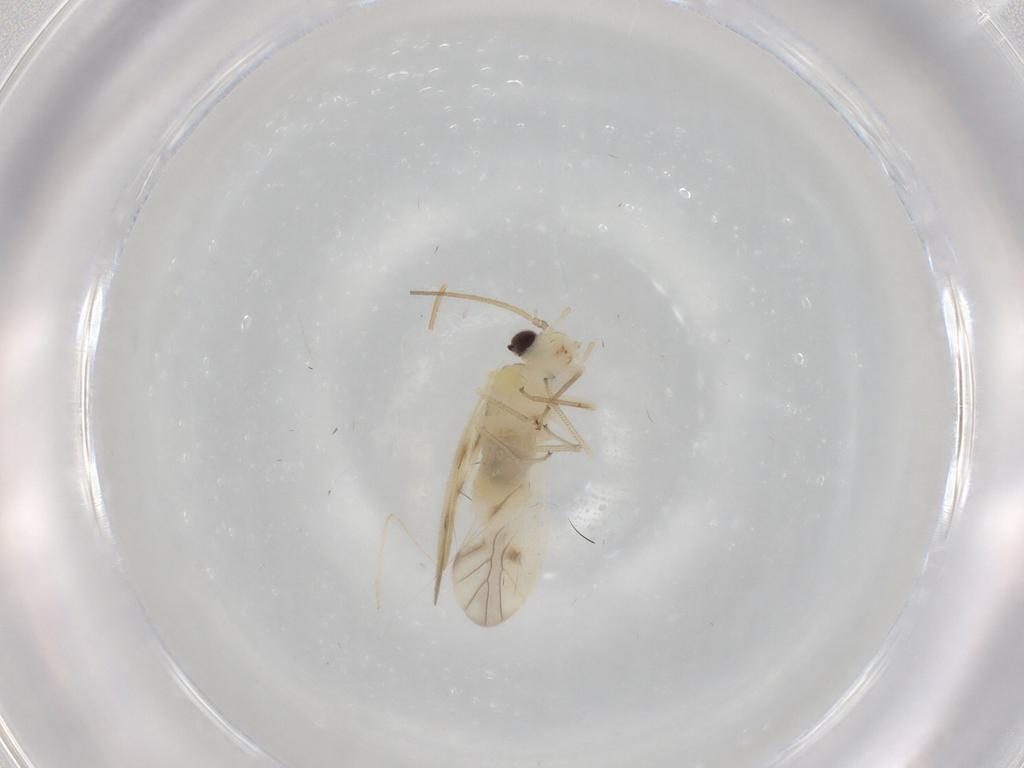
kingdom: Animalia
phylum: Arthropoda
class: Insecta
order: Psocodea
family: Caeciliusidae
